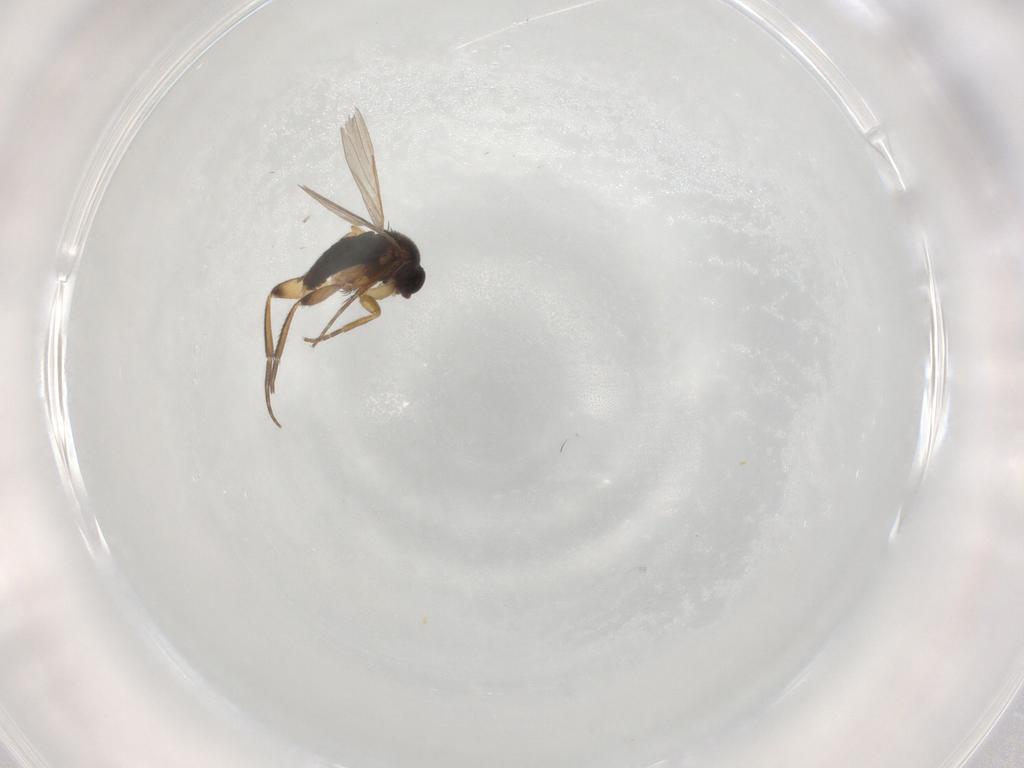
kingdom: Animalia
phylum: Arthropoda
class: Insecta
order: Diptera
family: Phoridae
